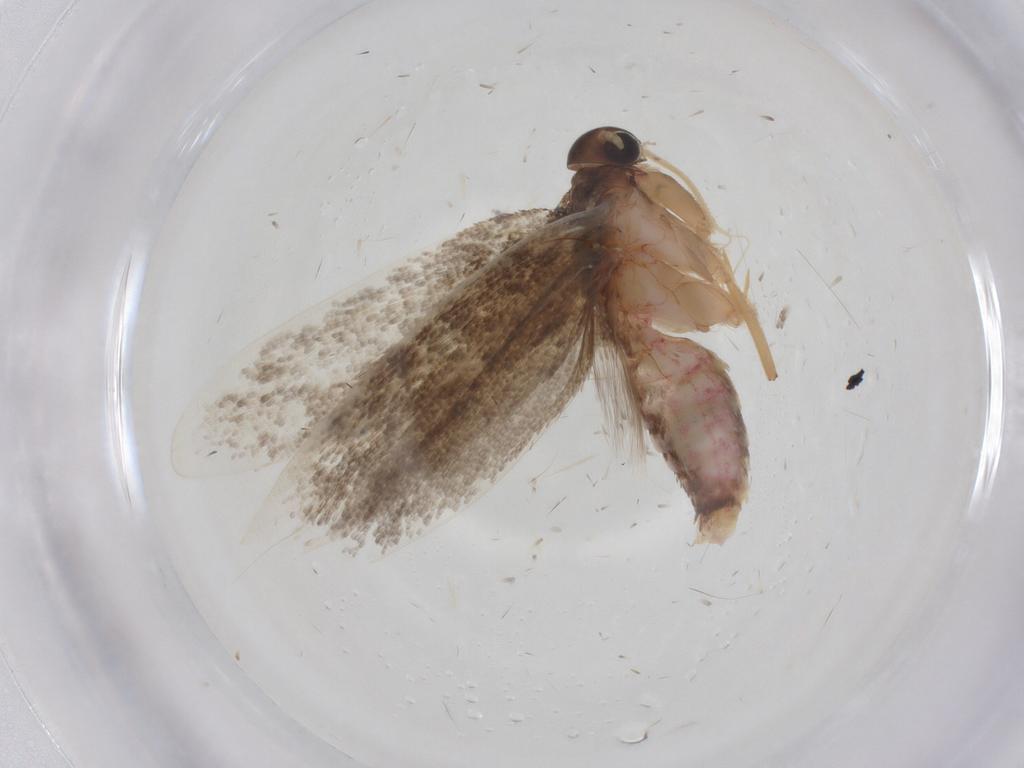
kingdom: Animalia
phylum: Arthropoda
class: Insecta
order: Lepidoptera
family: Oecophoridae
